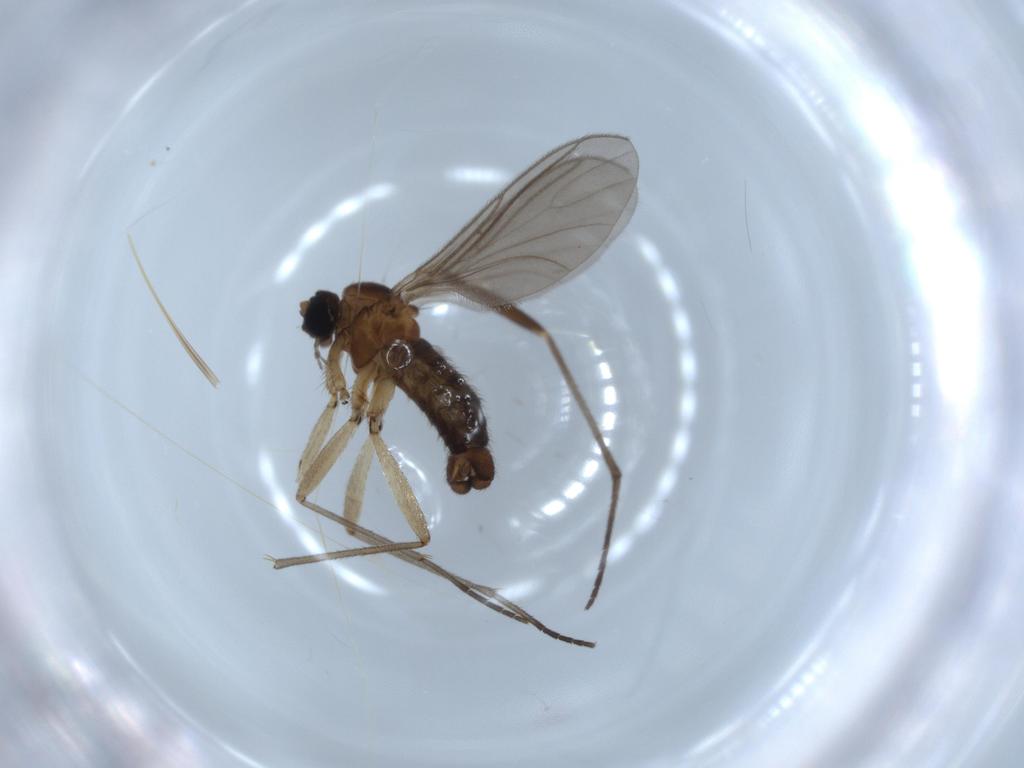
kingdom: Animalia
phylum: Arthropoda
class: Insecta
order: Diptera
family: Sciaridae
